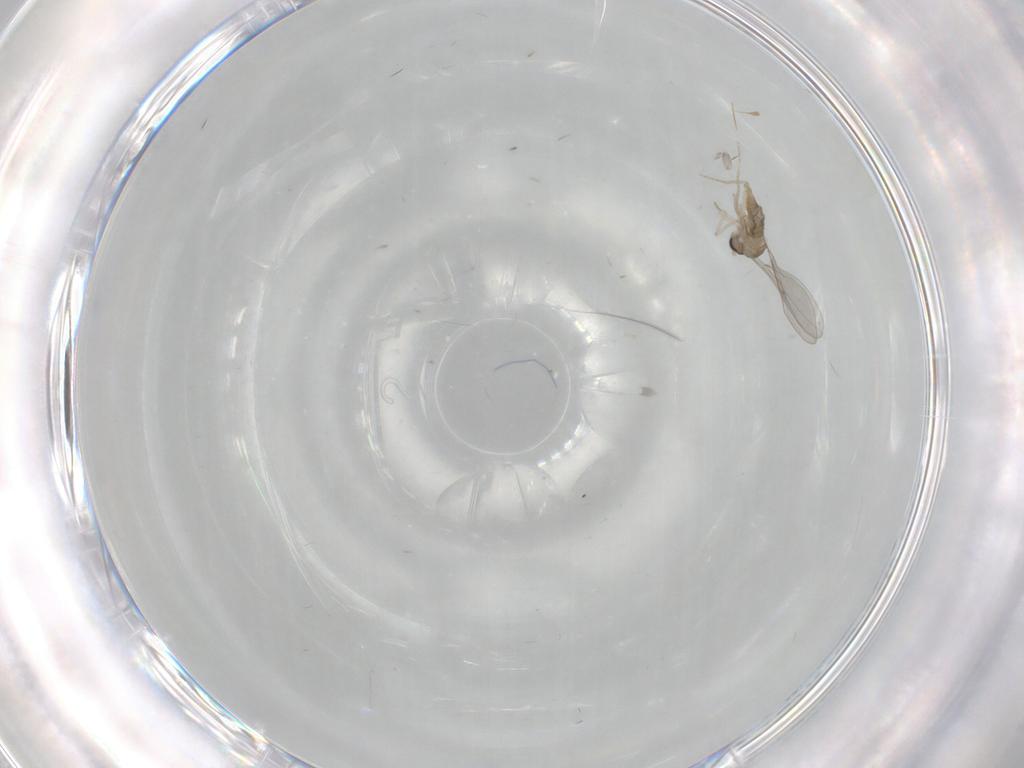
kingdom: Animalia
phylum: Arthropoda
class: Insecta
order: Diptera
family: Cecidomyiidae
